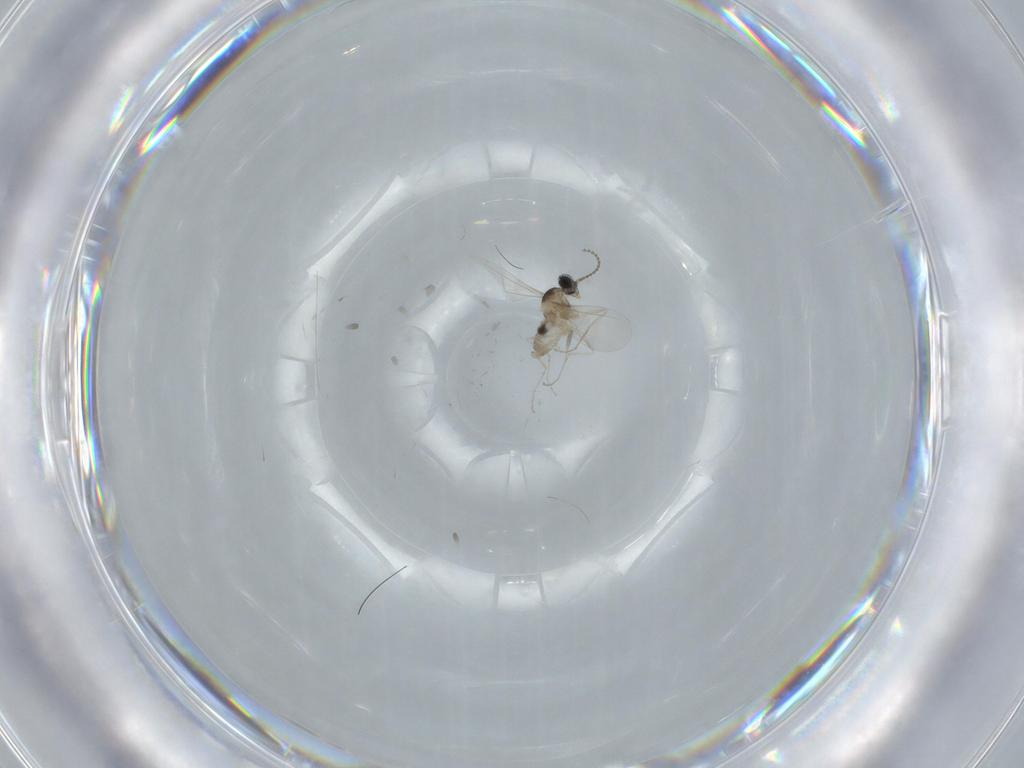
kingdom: Animalia
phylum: Arthropoda
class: Insecta
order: Diptera
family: Cecidomyiidae
